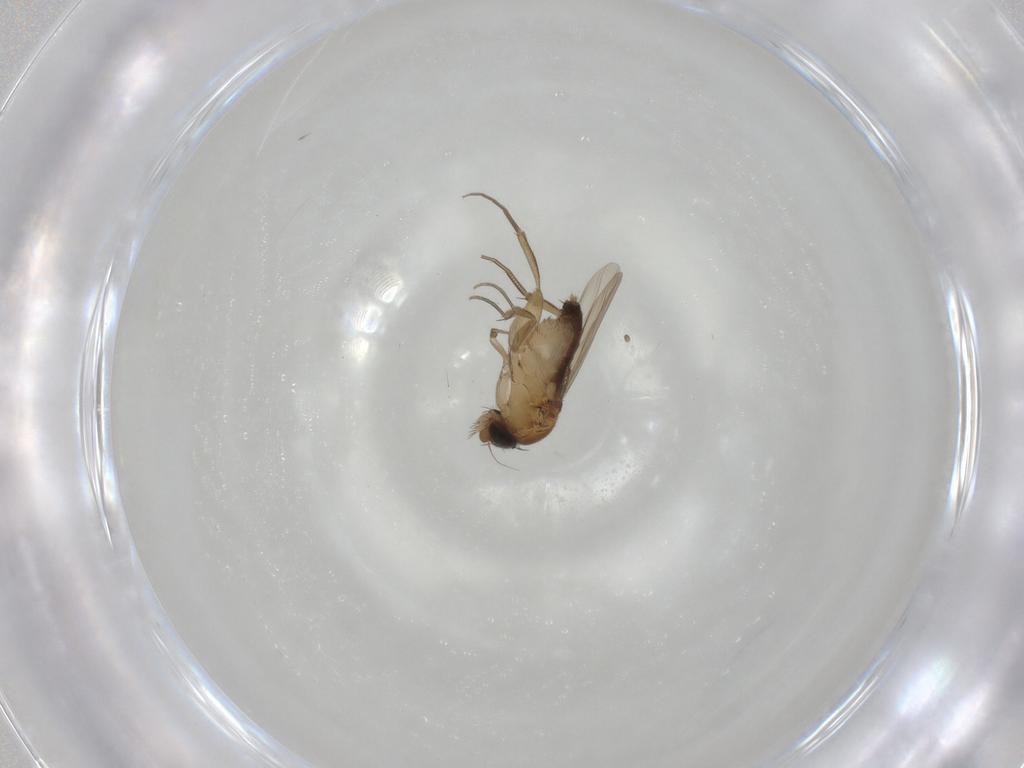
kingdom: Animalia
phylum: Arthropoda
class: Insecta
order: Diptera
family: Phoridae
